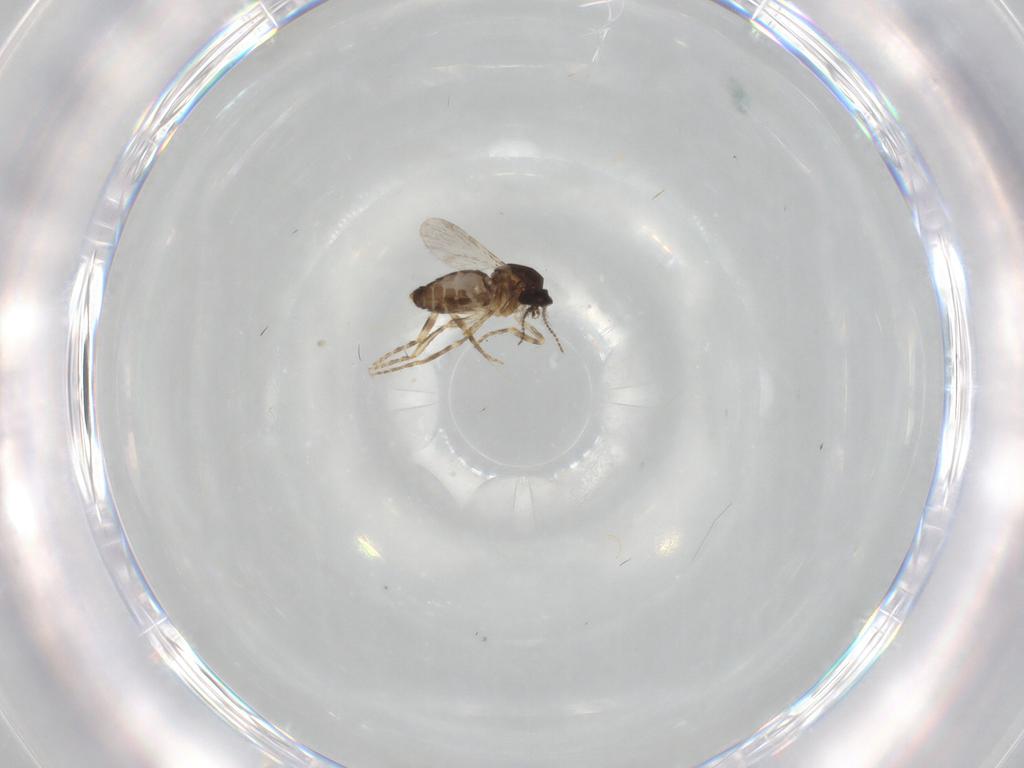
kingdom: Animalia
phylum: Arthropoda
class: Insecta
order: Diptera
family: Ceratopogonidae
